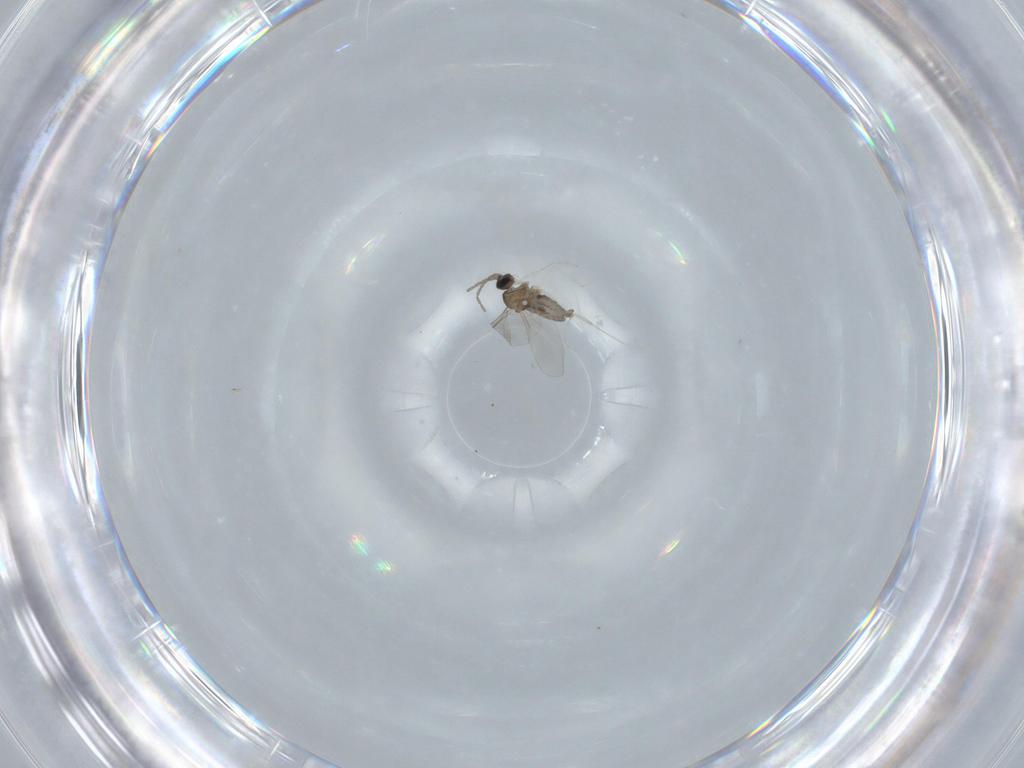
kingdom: Animalia
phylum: Arthropoda
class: Insecta
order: Diptera
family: Cecidomyiidae
